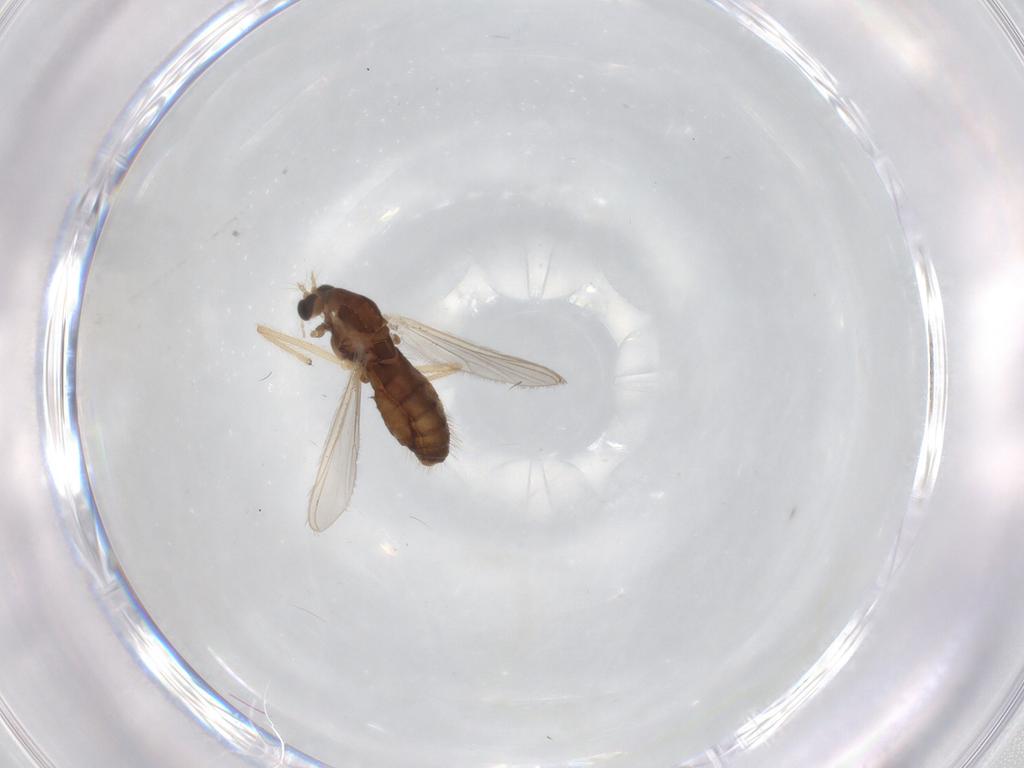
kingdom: Animalia
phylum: Arthropoda
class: Insecta
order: Diptera
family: Chironomidae
